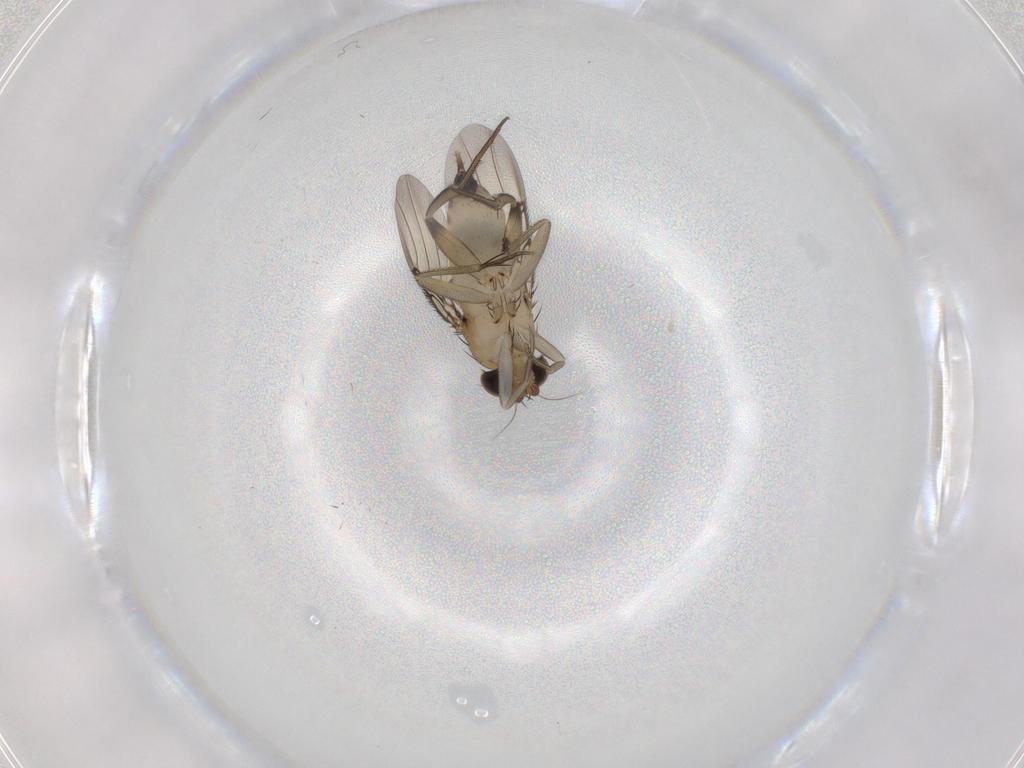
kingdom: Animalia
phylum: Arthropoda
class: Insecta
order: Diptera
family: Phoridae
